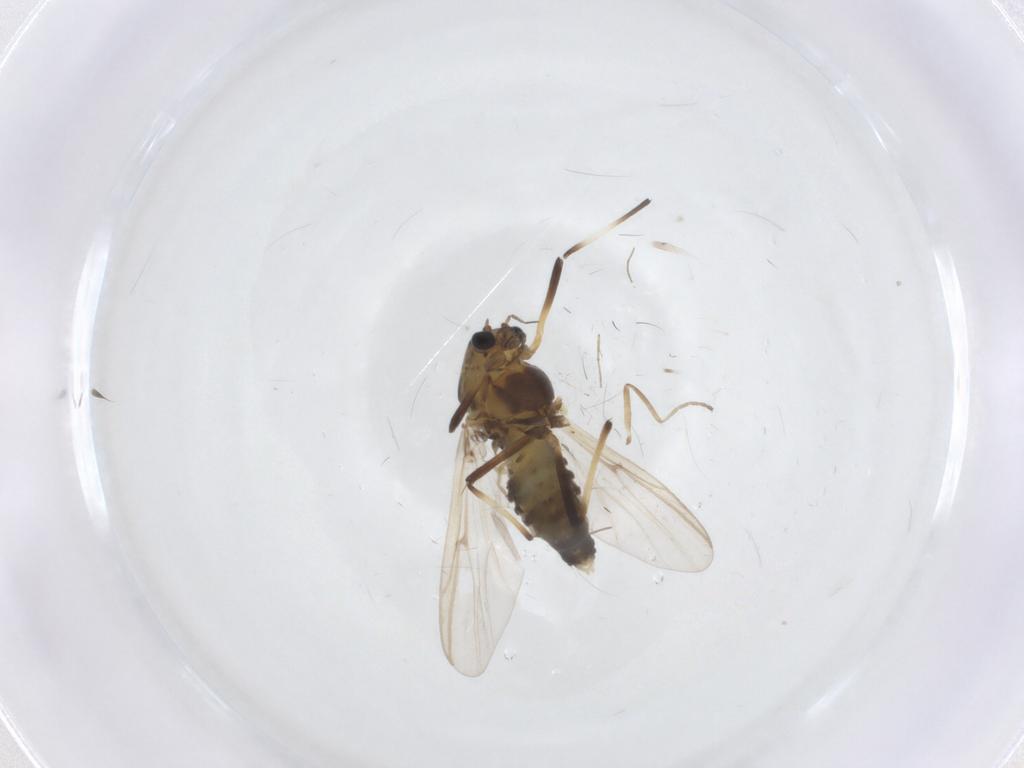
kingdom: Animalia
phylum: Arthropoda
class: Insecta
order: Diptera
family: Chironomidae
